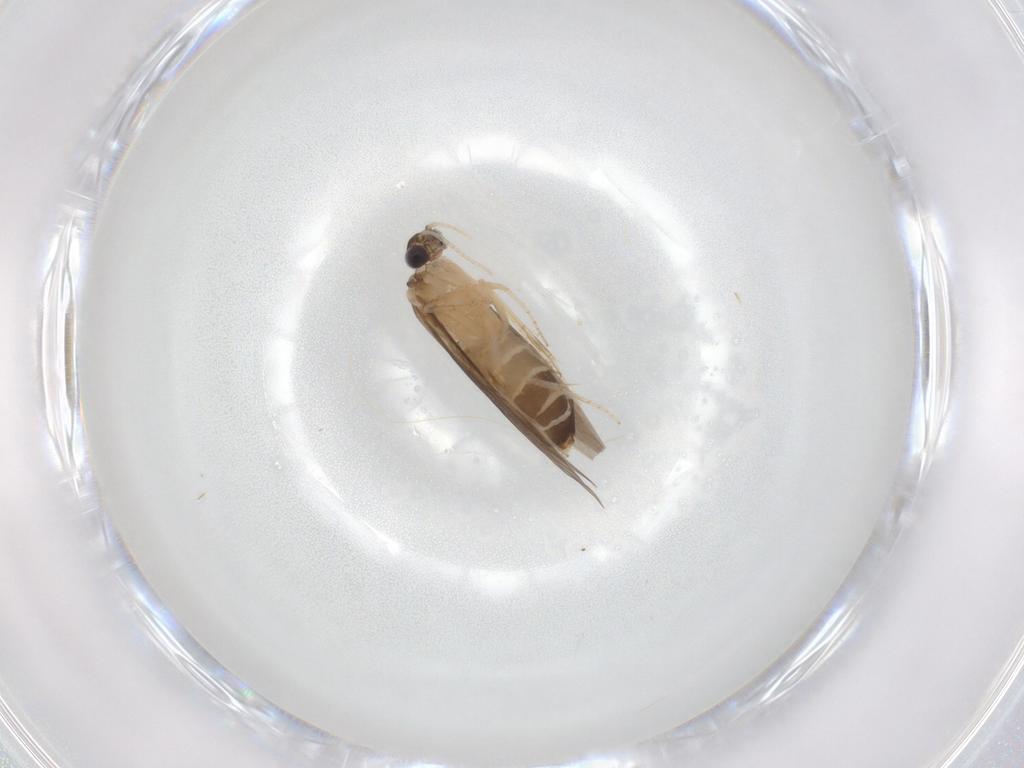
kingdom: Animalia
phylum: Arthropoda
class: Insecta
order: Trichoptera
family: Hydroptilidae
